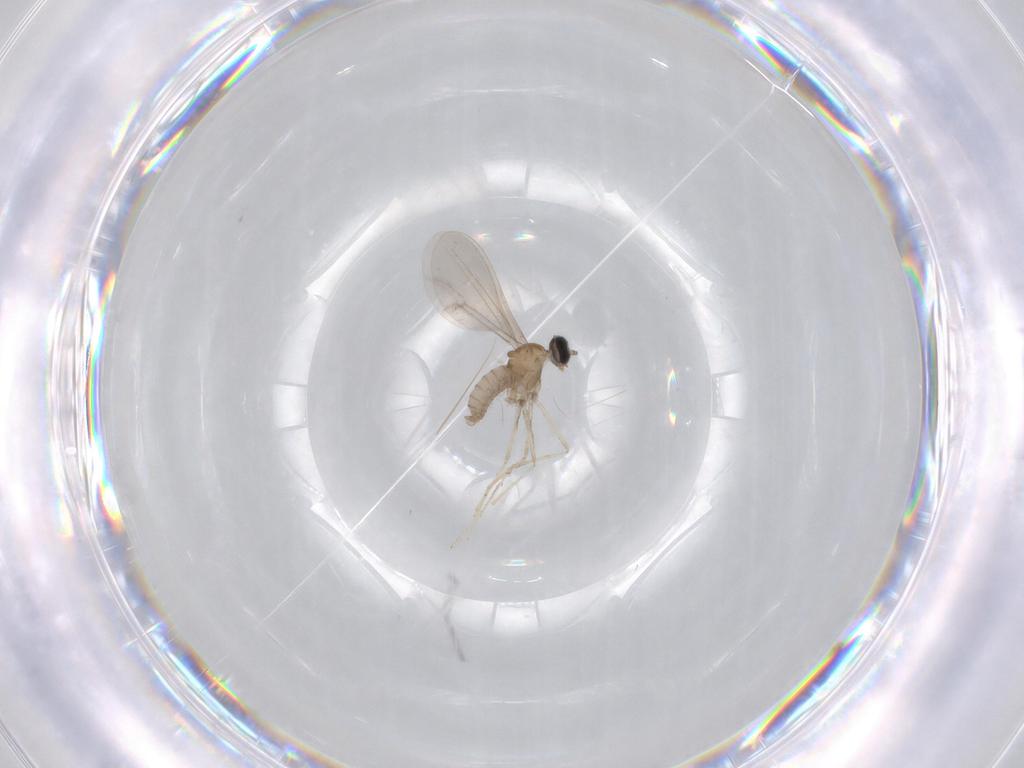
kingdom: Animalia
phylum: Arthropoda
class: Insecta
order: Diptera
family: Cecidomyiidae
